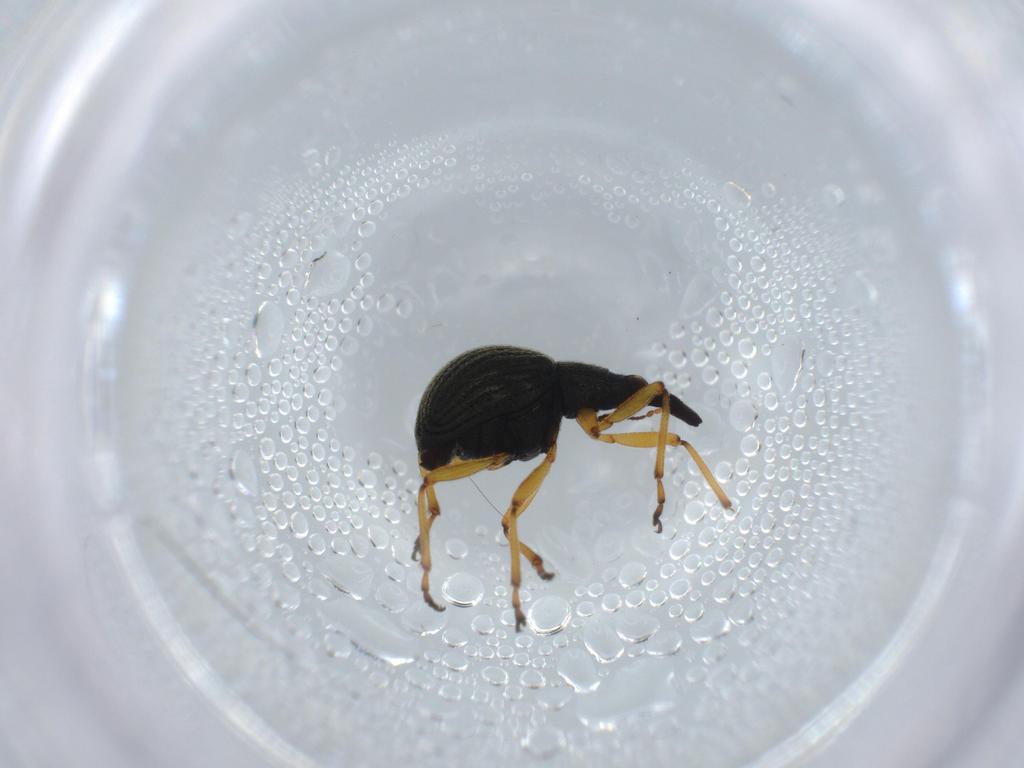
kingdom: Animalia
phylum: Arthropoda
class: Insecta
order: Coleoptera
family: Brentidae
